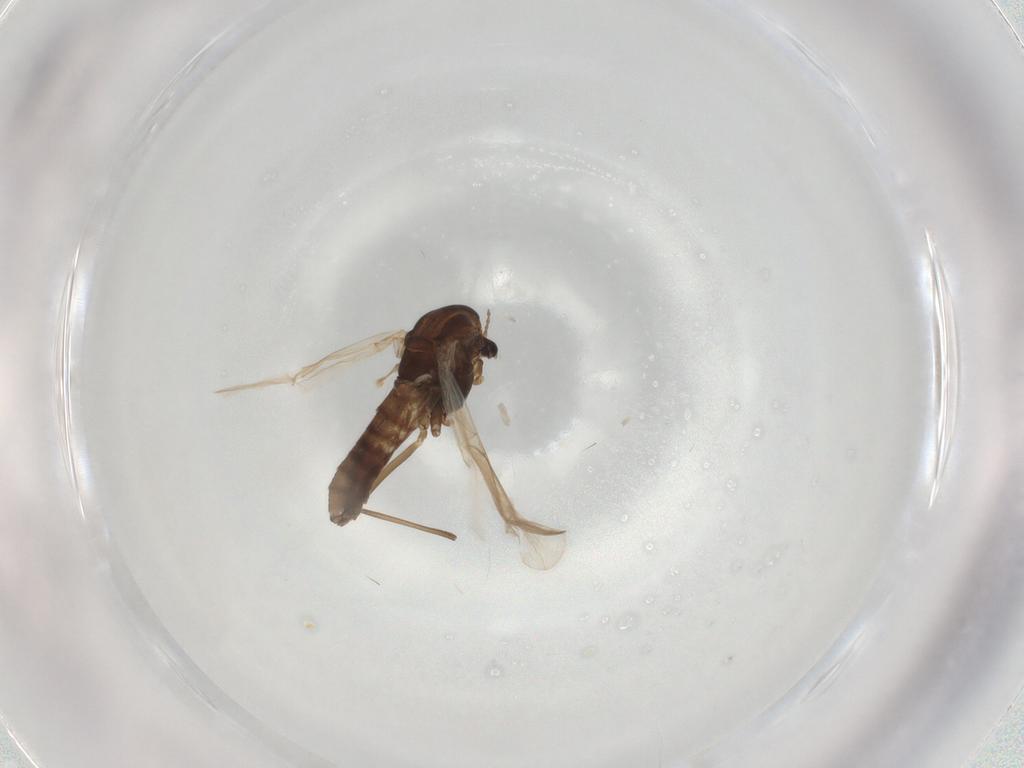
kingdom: Animalia
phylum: Arthropoda
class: Insecta
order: Diptera
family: Chironomidae
